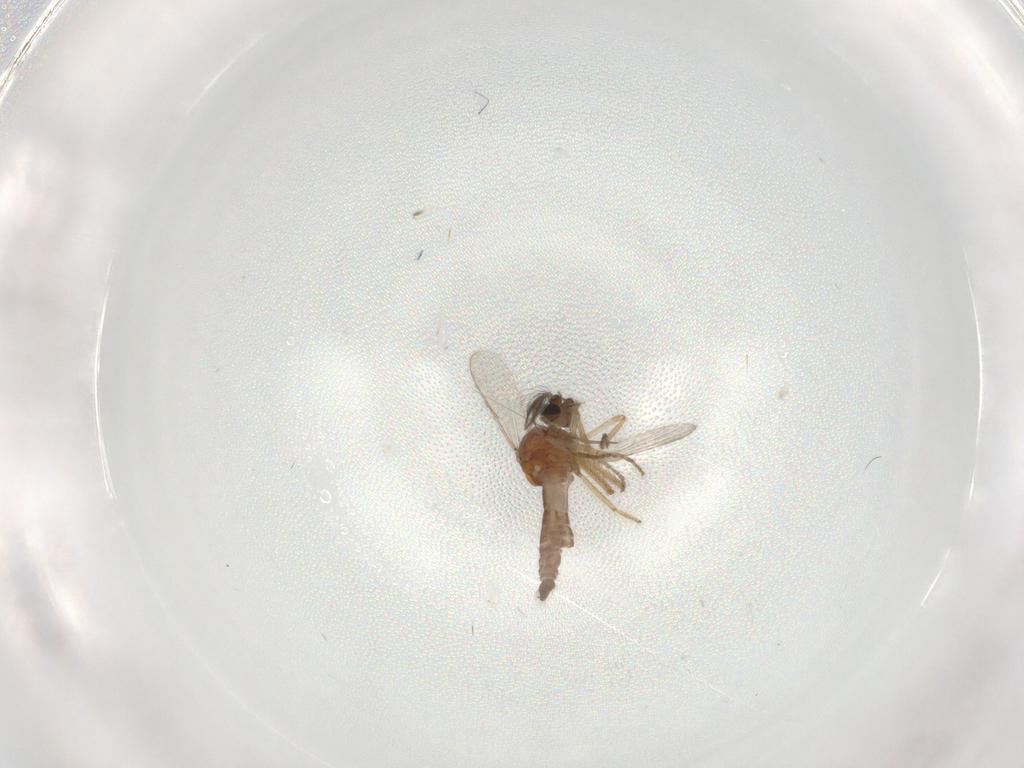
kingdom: Animalia
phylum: Arthropoda
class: Insecta
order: Diptera
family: Ceratopogonidae
